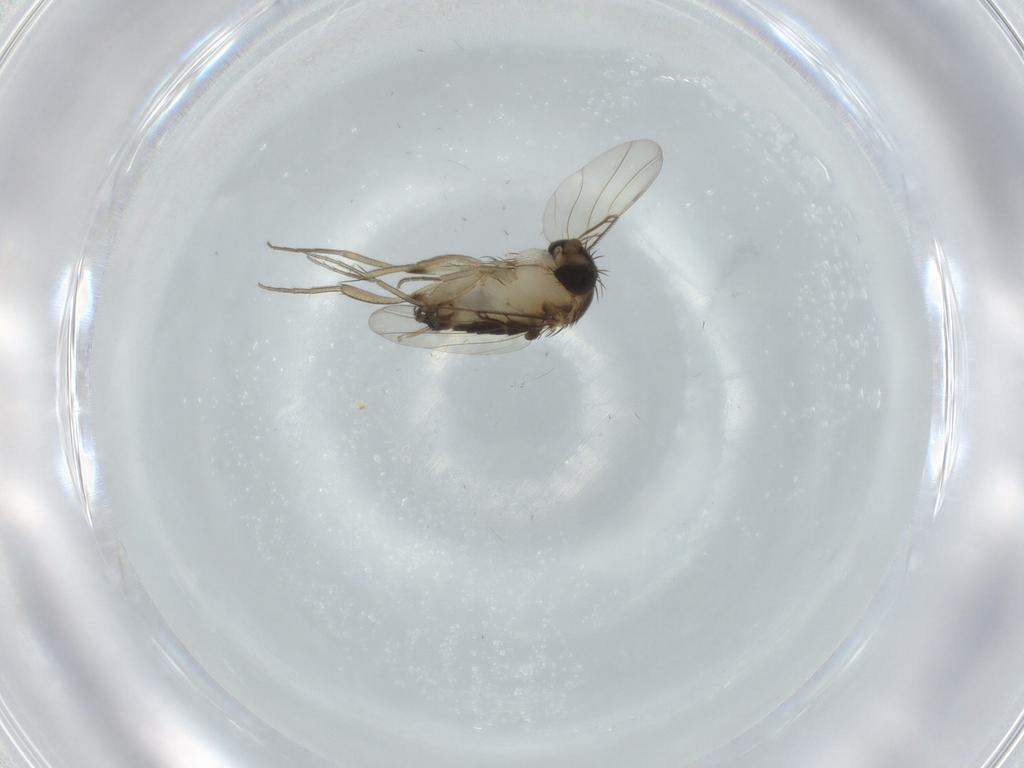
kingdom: Animalia
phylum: Arthropoda
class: Insecta
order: Diptera
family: Phoridae
